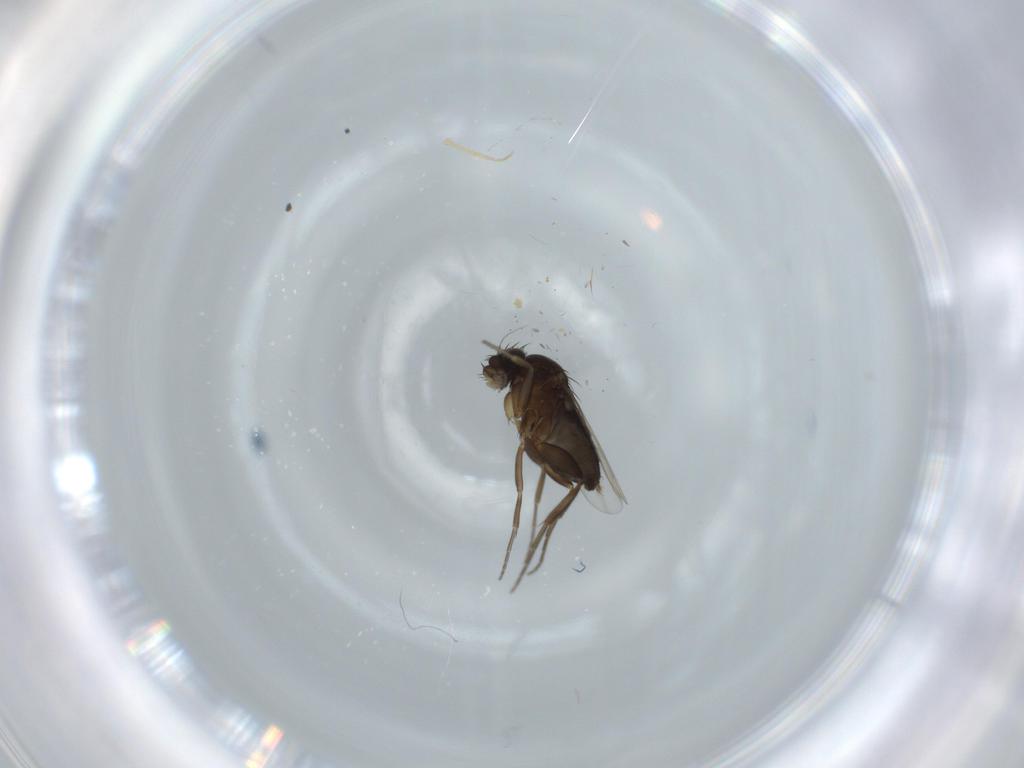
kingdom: Animalia
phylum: Arthropoda
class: Insecta
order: Diptera
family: Phoridae
